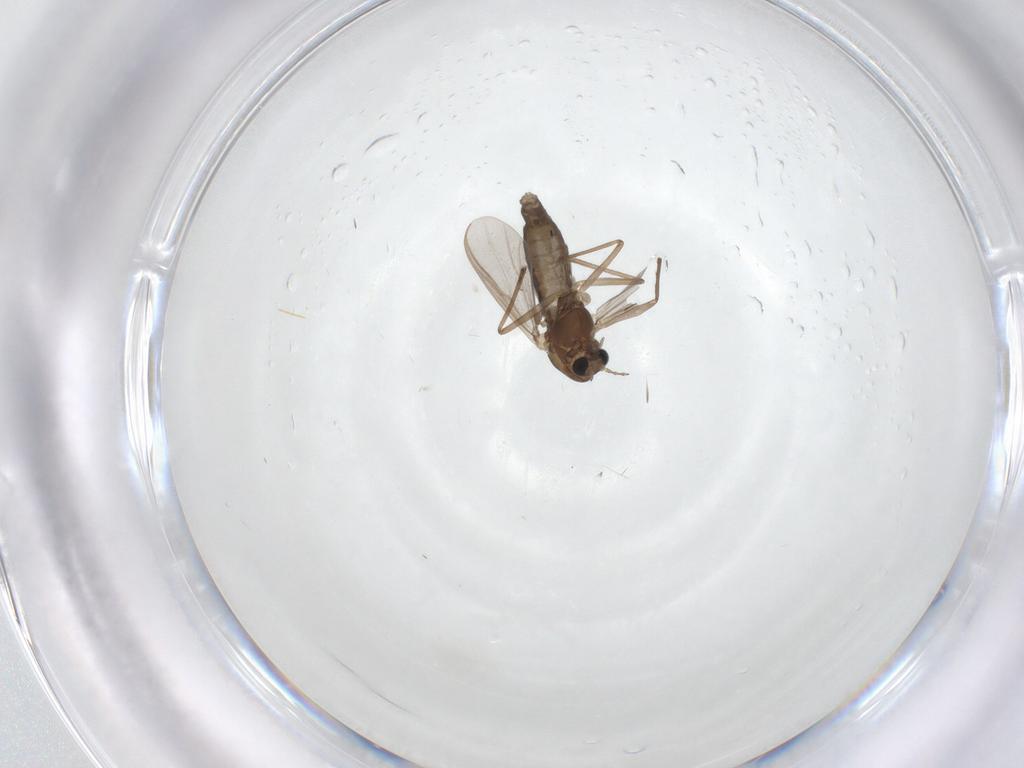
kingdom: Animalia
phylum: Arthropoda
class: Insecta
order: Diptera
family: Chironomidae
